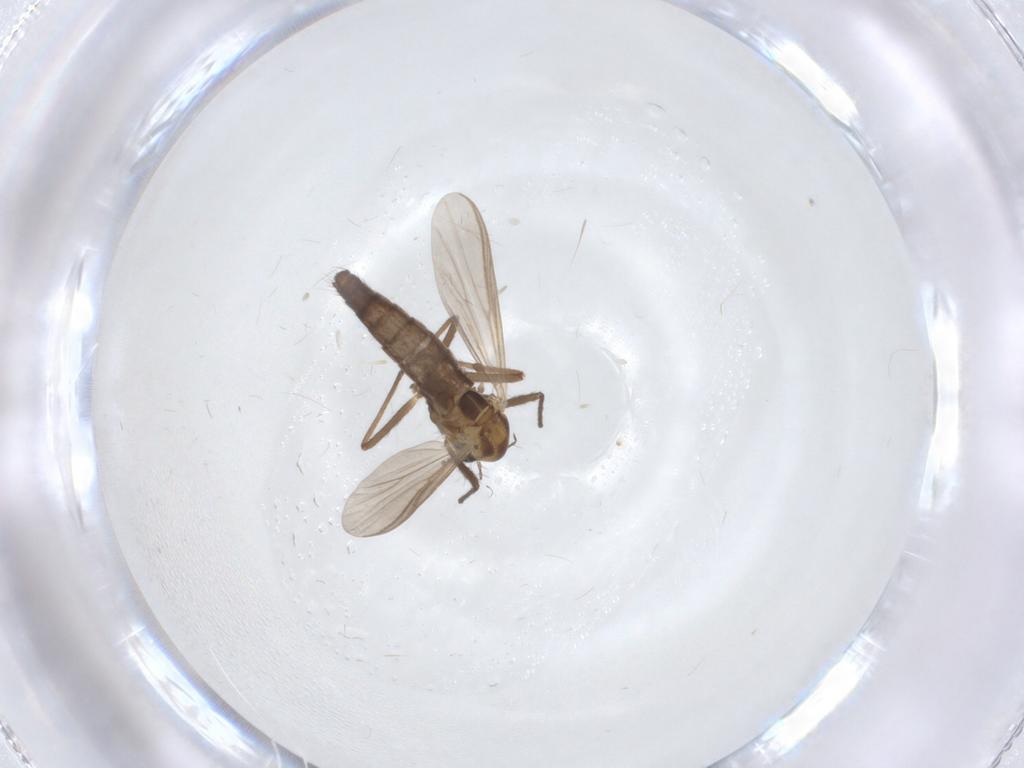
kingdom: Animalia
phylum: Arthropoda
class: Insecta
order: Diptera
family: Chironomidae
